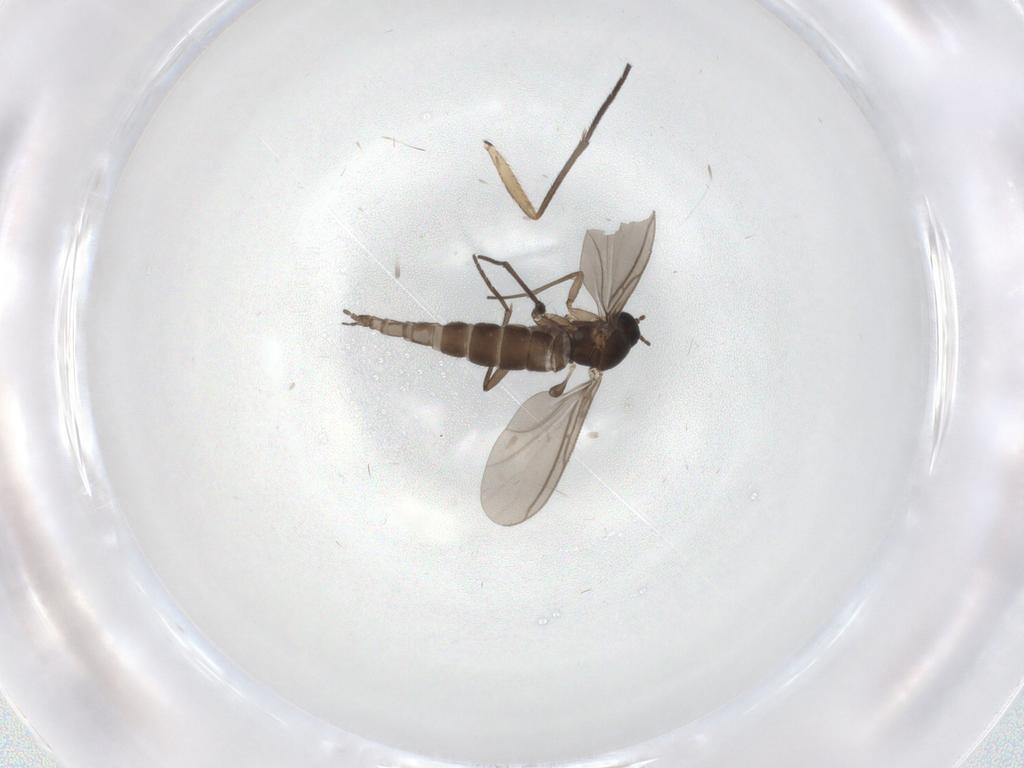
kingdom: Animalia
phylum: Arthropoda
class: Insecta
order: Diptera
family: Sciaridae
